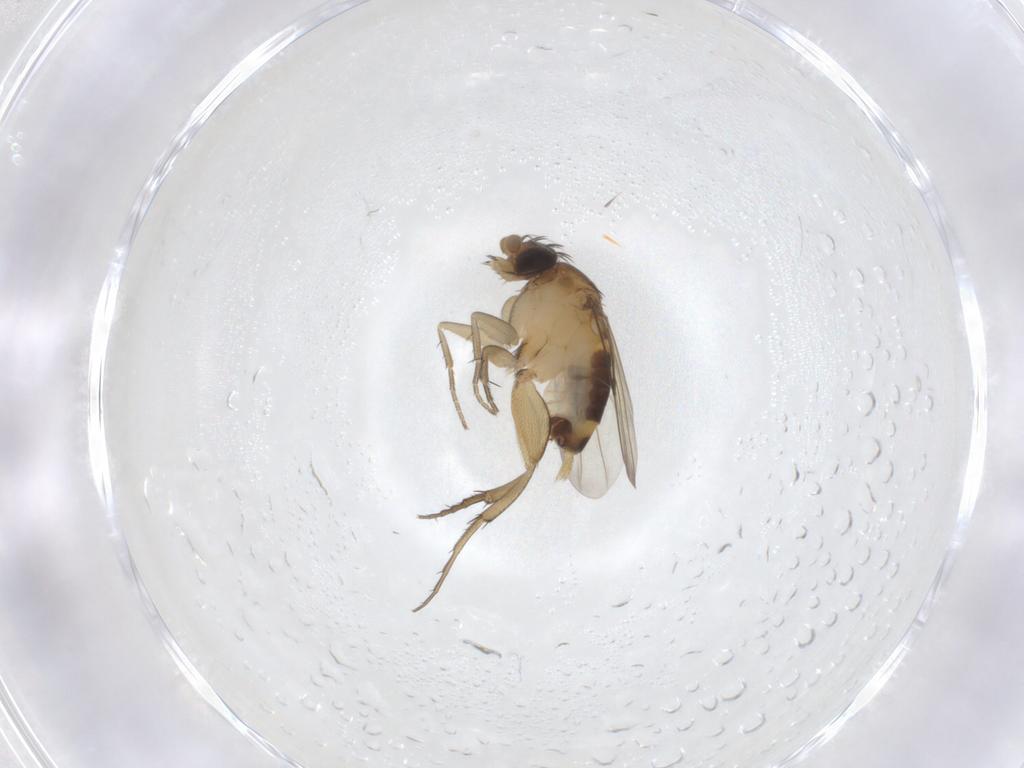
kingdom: Animalia
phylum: Arthropoda
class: Insecta
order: Diptera
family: Phoridae
